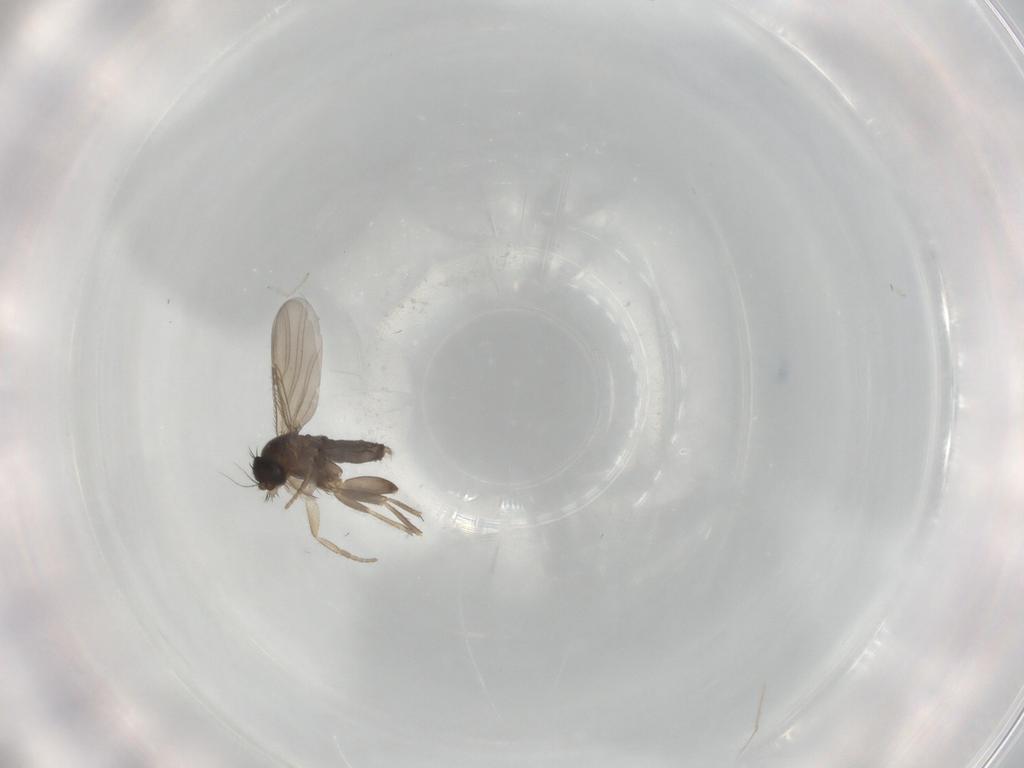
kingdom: Animalia
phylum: Arthropoda
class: Insecta
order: Diptera
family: Phoridae
